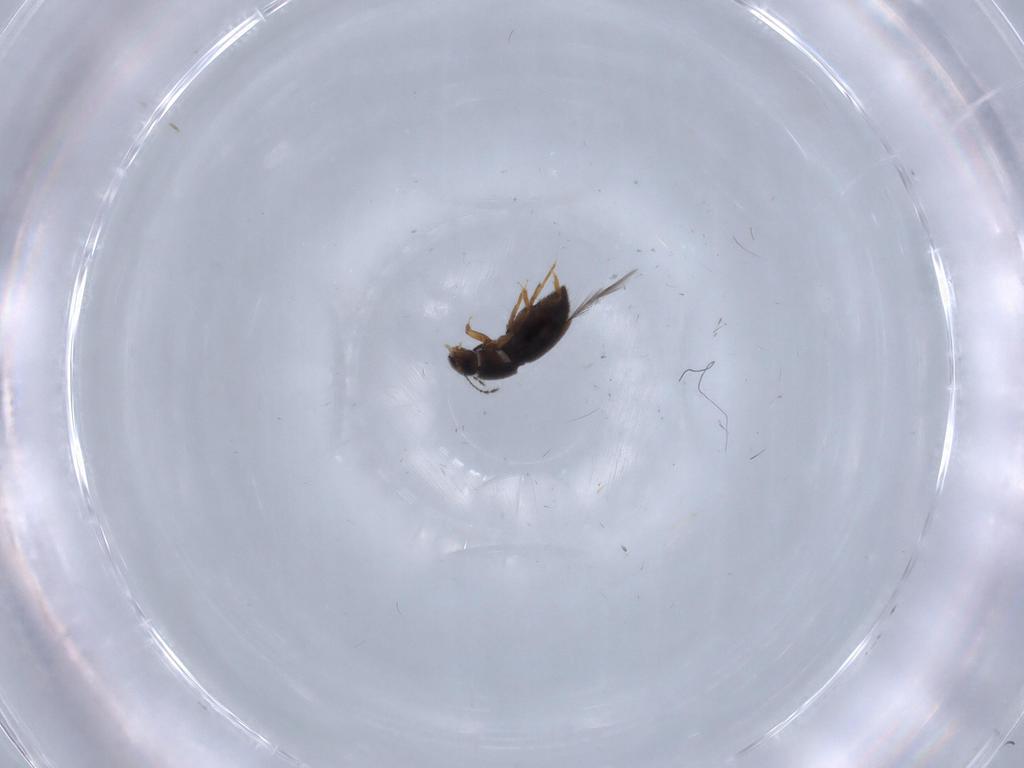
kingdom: Animalia
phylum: Arthropoda
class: Insecta
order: Coleoptera
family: Ptiliidae
